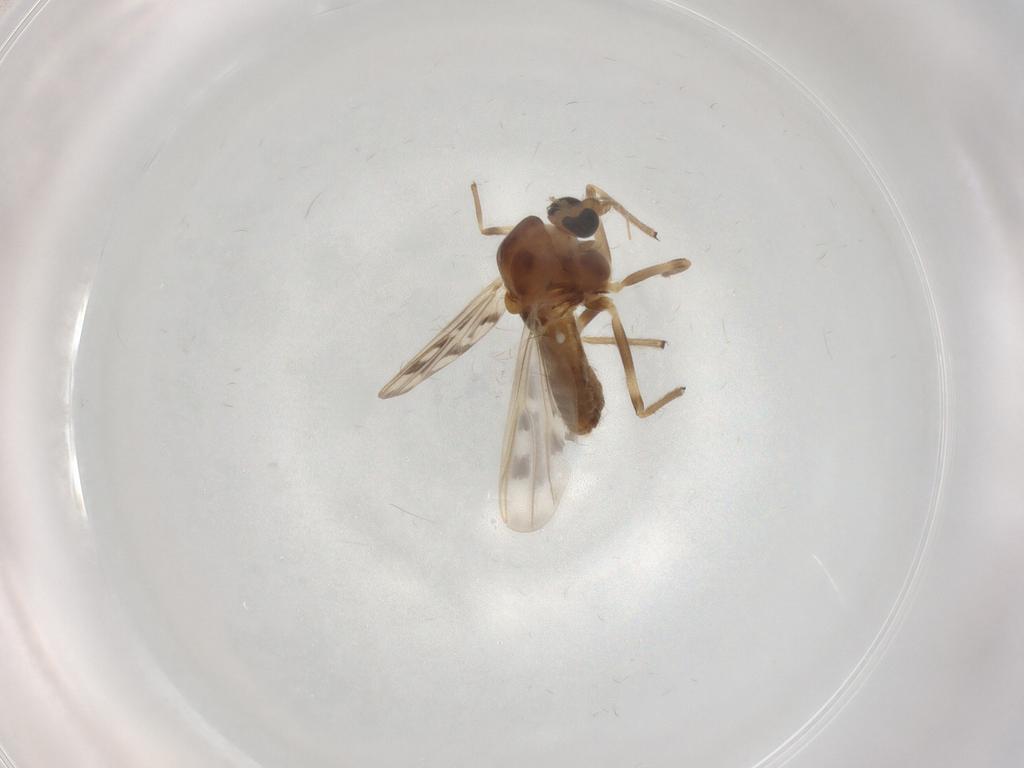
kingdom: Animalia
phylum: Arthropoda
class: Insecta
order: Diptera
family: Chironomidae
